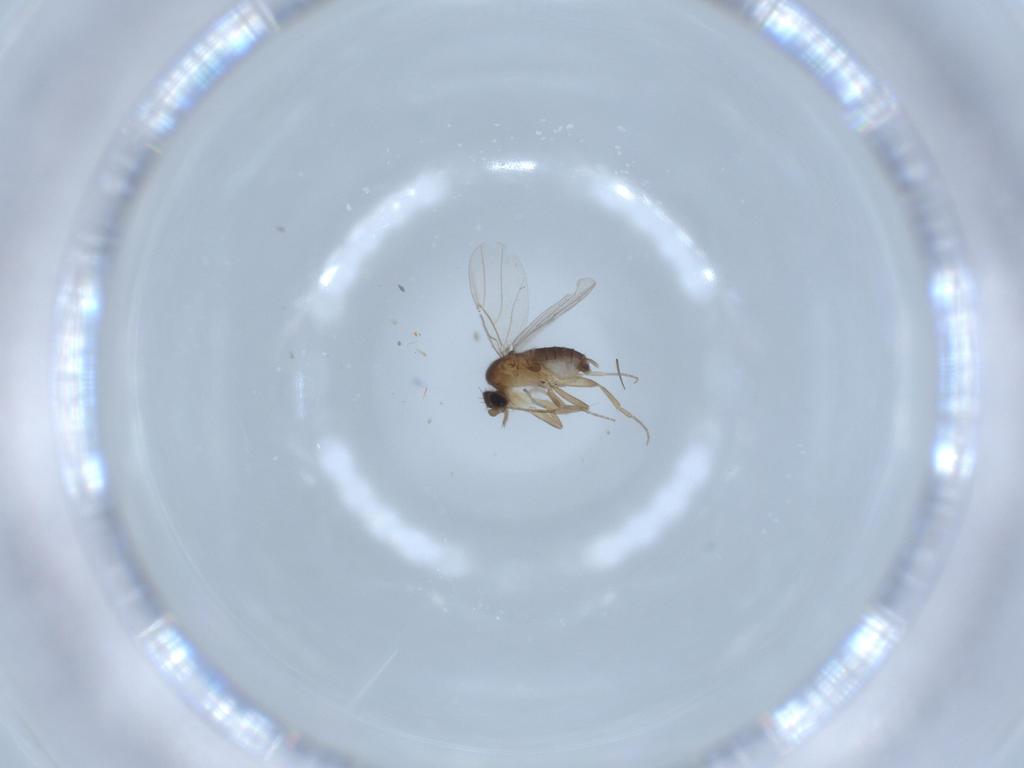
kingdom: Animalia
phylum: Arthropoda
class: Insecta
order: Diptera
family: Phoridae
